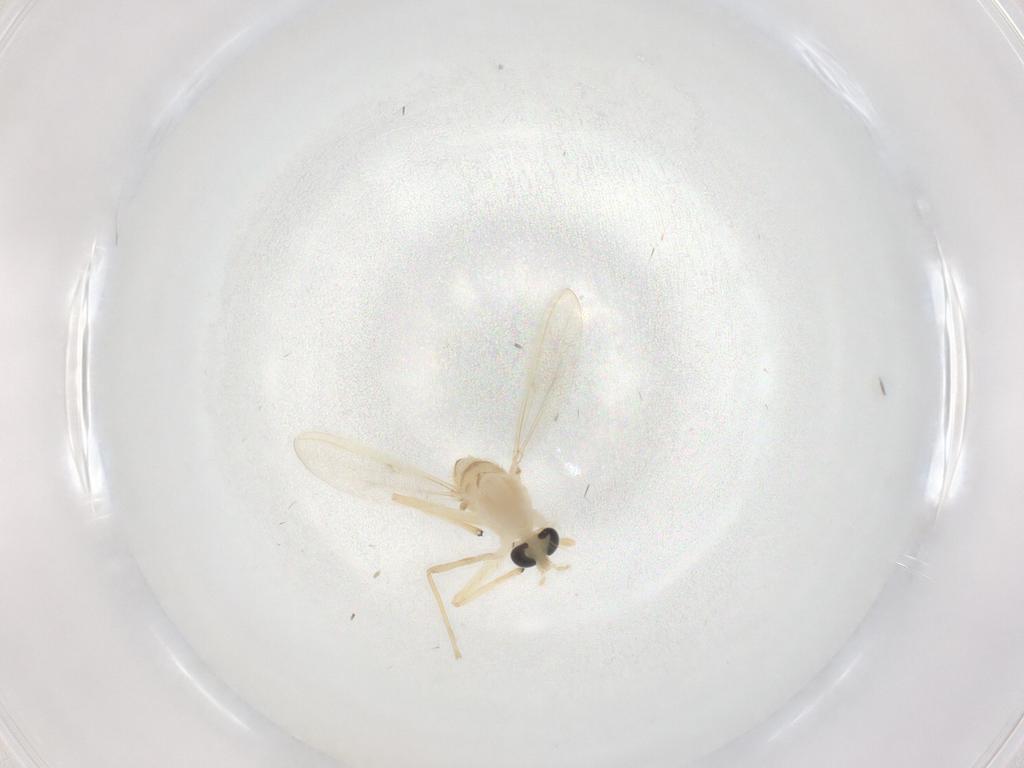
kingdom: Animalia
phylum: Arthropoda
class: Insecta
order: Diptera
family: Chironomidae
